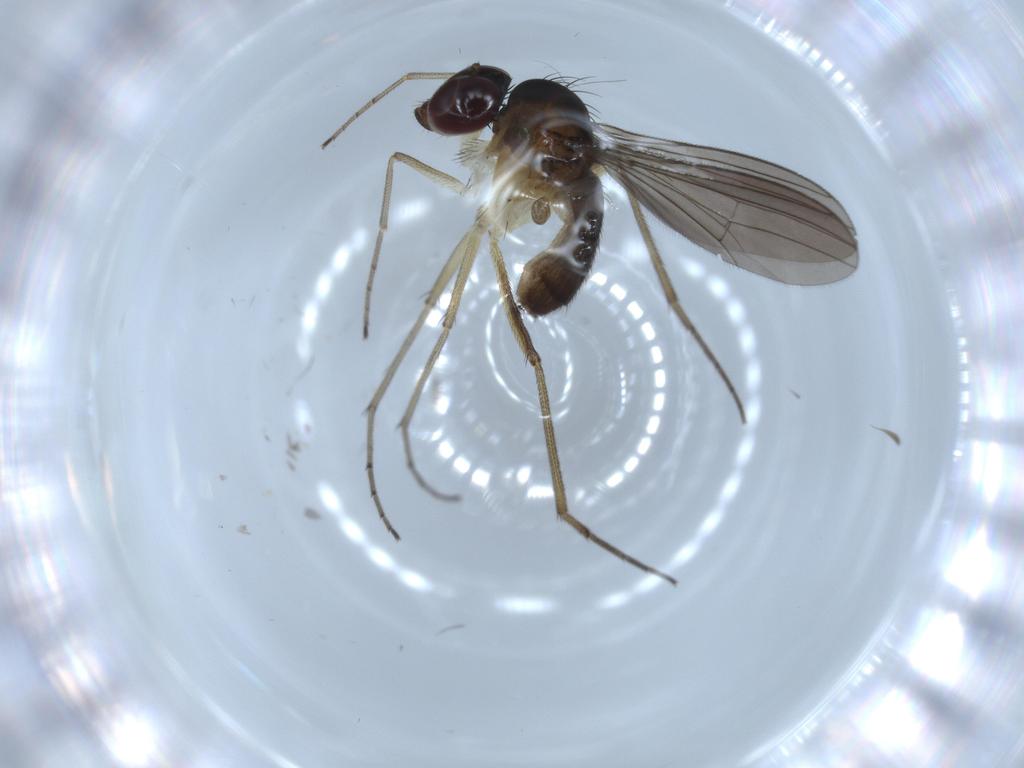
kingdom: Animalia
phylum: Arthropoda
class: Insecta
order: Diptera
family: Dolichopodidae
